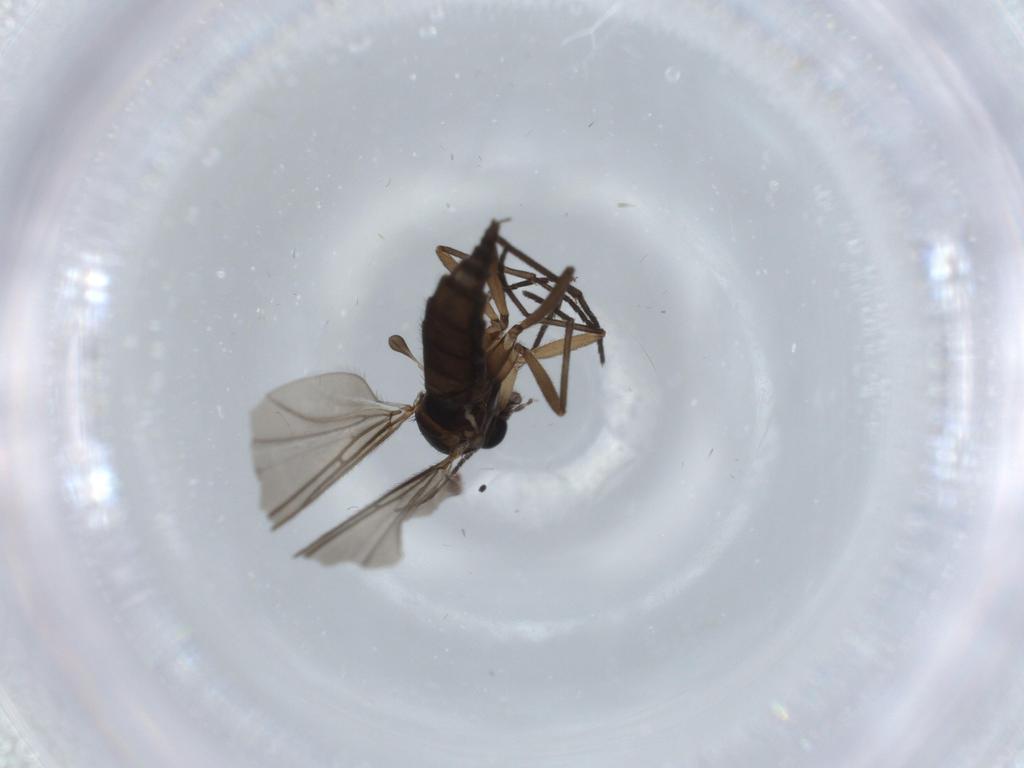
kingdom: Animalia
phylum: Arthropoda
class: Insecta
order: Diptera
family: Sciaridae
